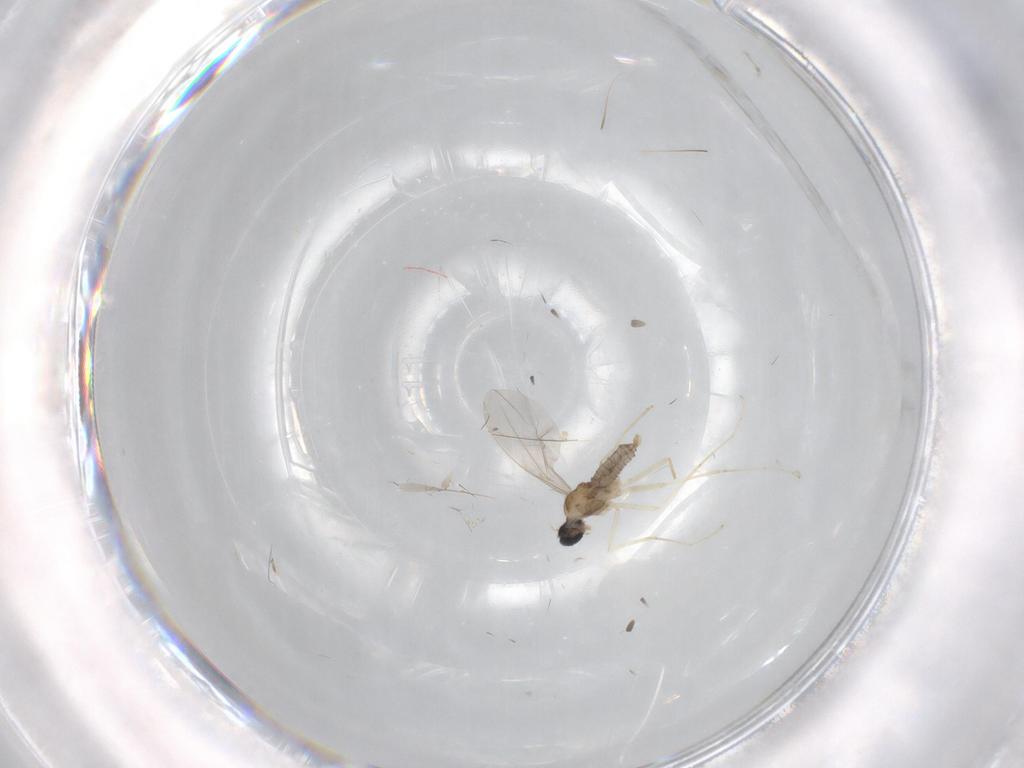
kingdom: Animalia
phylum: Arthropoda
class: Insecta
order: Diptera
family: Cecidomyiidae
